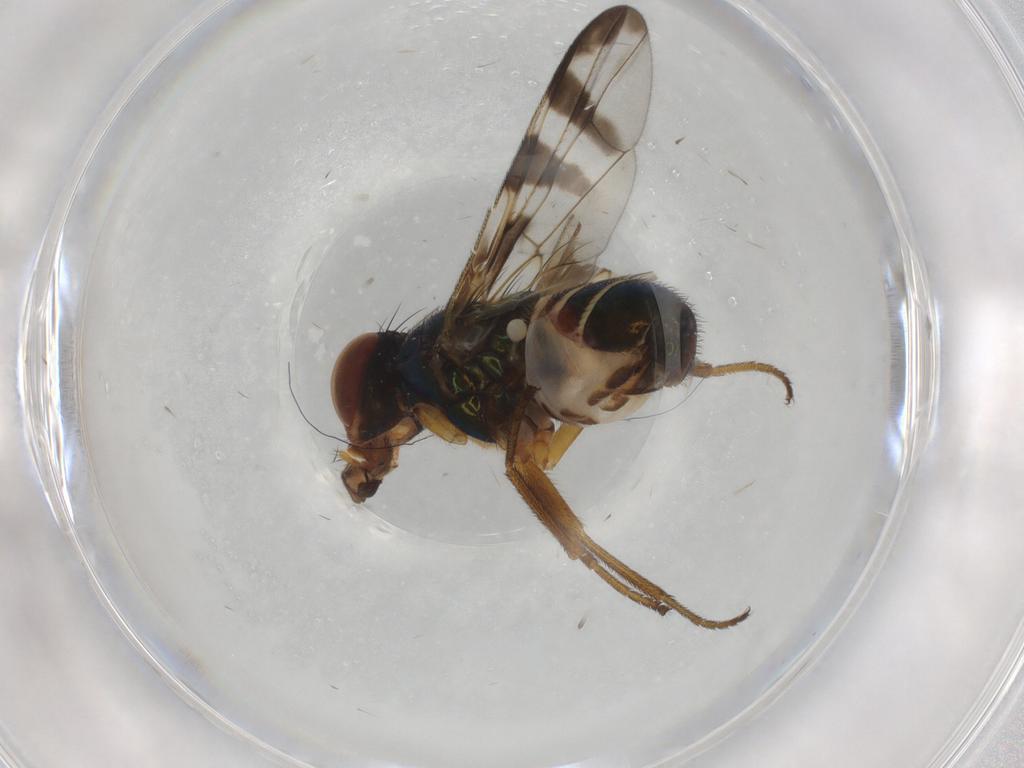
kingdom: Animalia
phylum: Arthropoda
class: Insecta
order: Diptera
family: Platystomatidae
